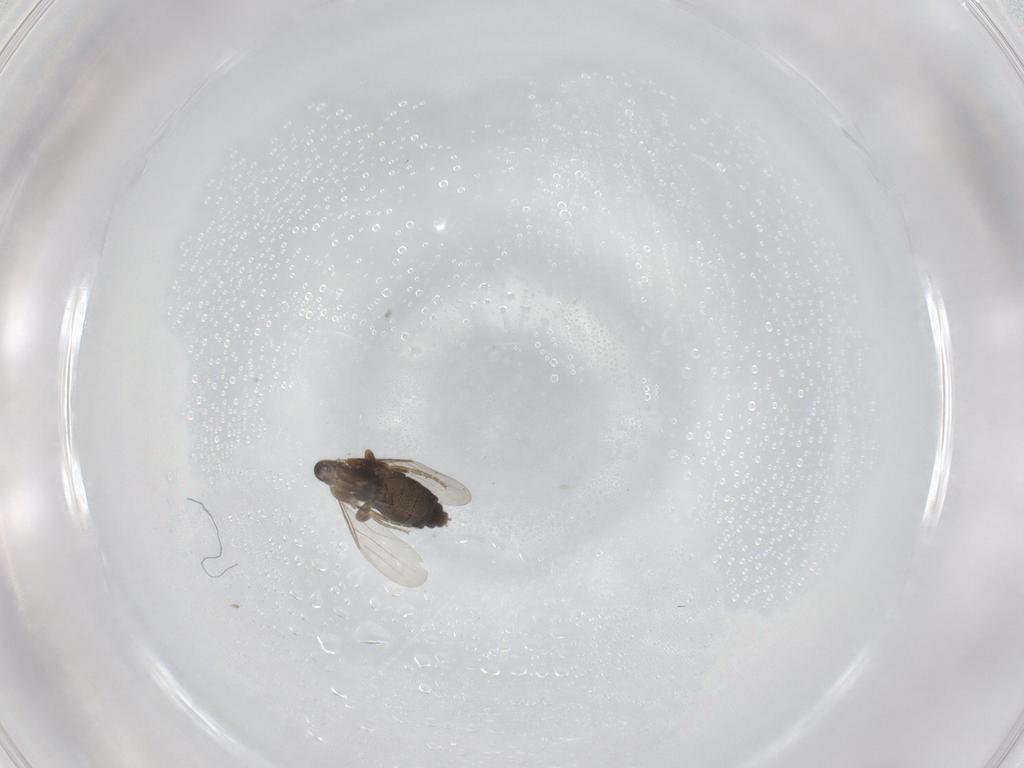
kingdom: Animalia
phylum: Arthropoda
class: Insecta
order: Diptera
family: Phoridae
